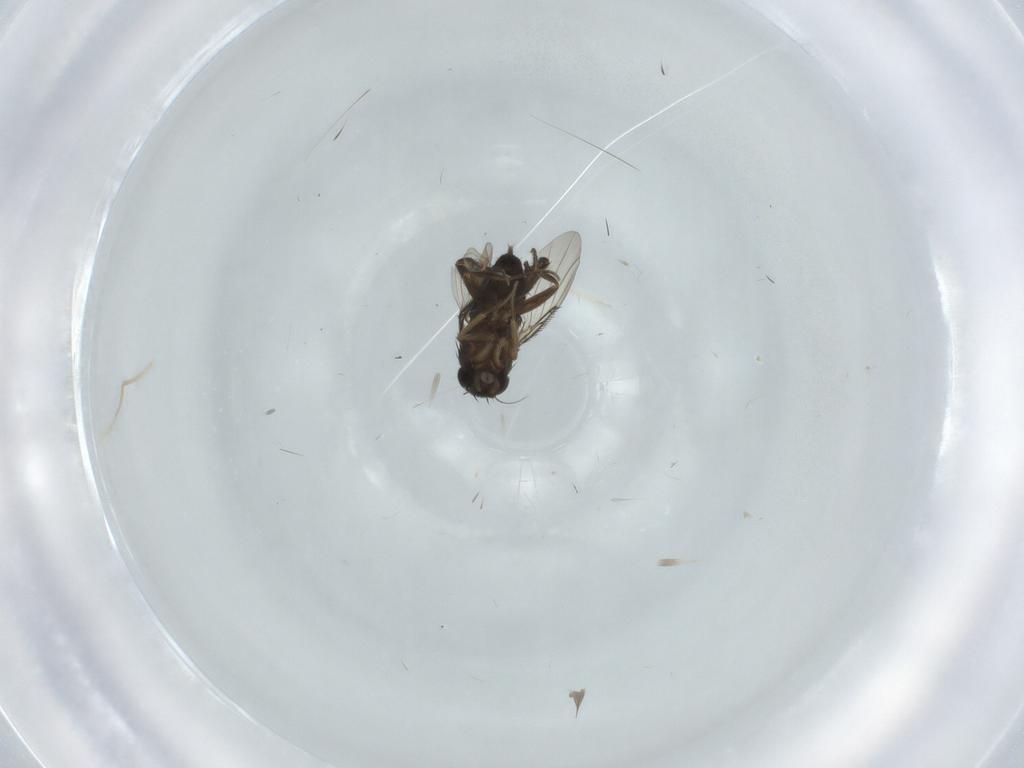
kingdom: Animalia
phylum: Arthropoda
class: Insecta
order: Diptera
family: Phoridae
